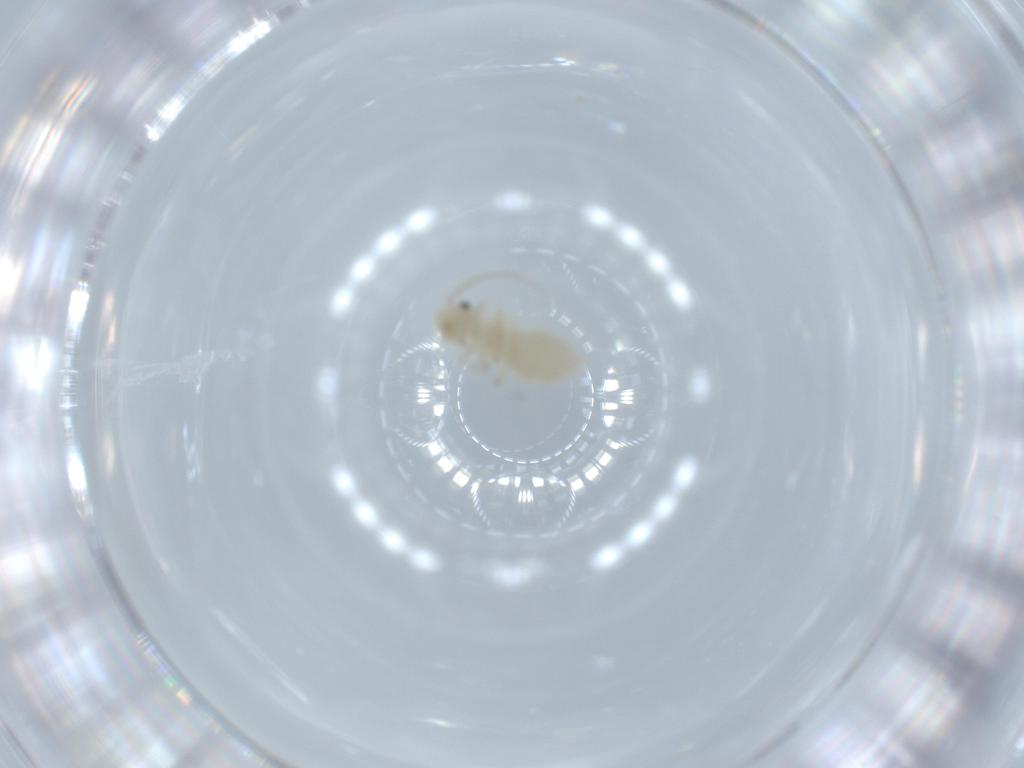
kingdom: Animalia
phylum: Arthropoda
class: Insecta
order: Psocodea
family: Caeciliusidae
